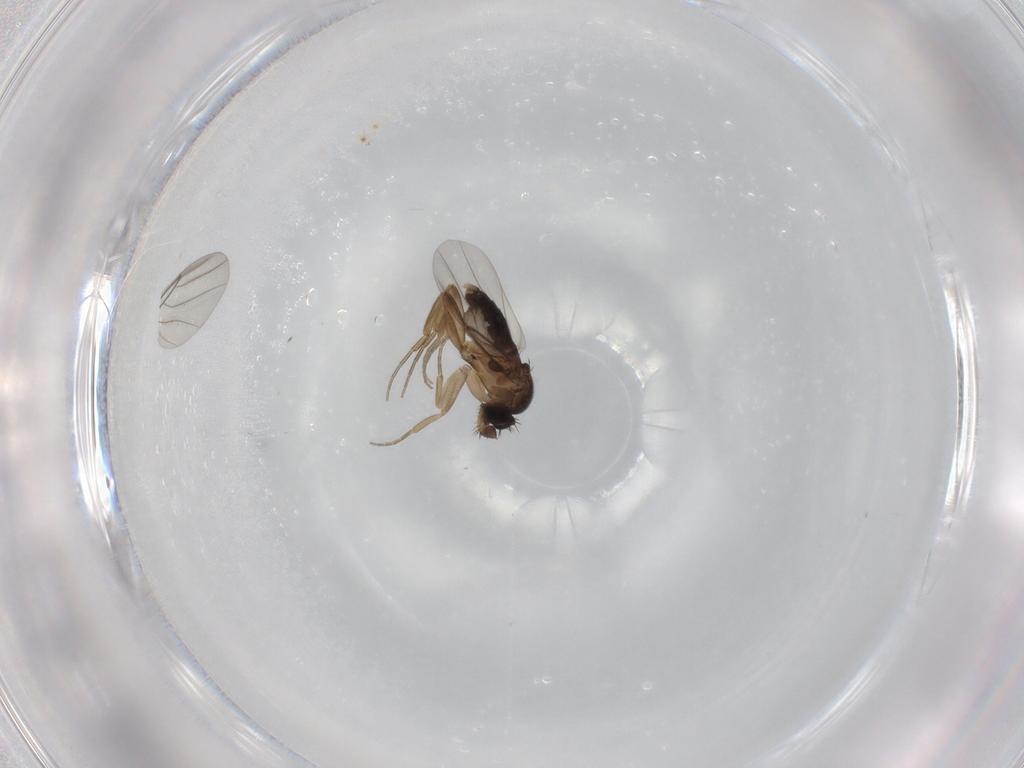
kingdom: Animalia
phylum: Arthropoda
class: Insecta
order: Diptera
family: Phoridae
